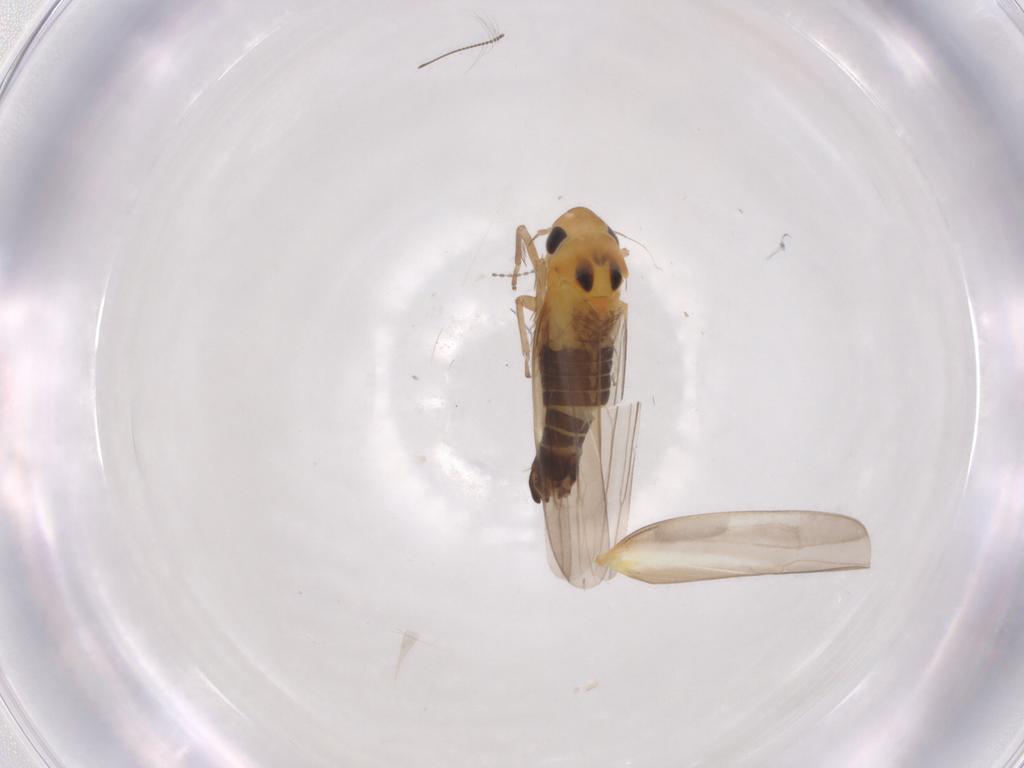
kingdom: Animalia
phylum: Arthropoda
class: Insecta
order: Hemiptera
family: Cicadellidae
